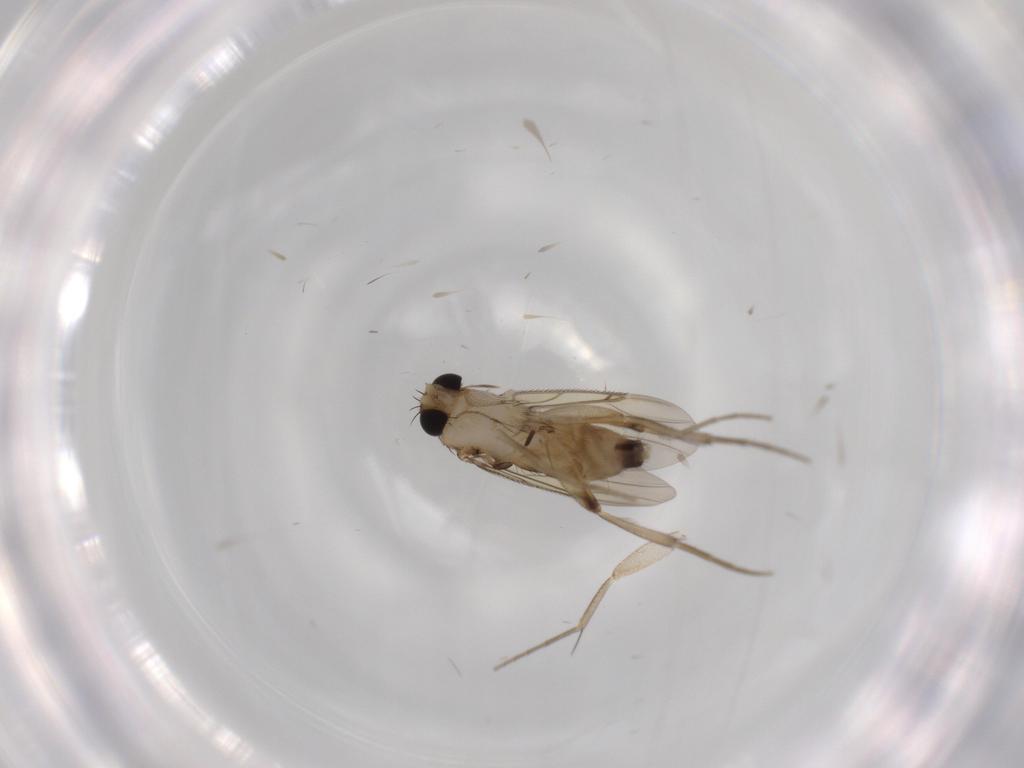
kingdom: Animalia
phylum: Arthropoda
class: Insecta
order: Diptera
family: Phoridae
